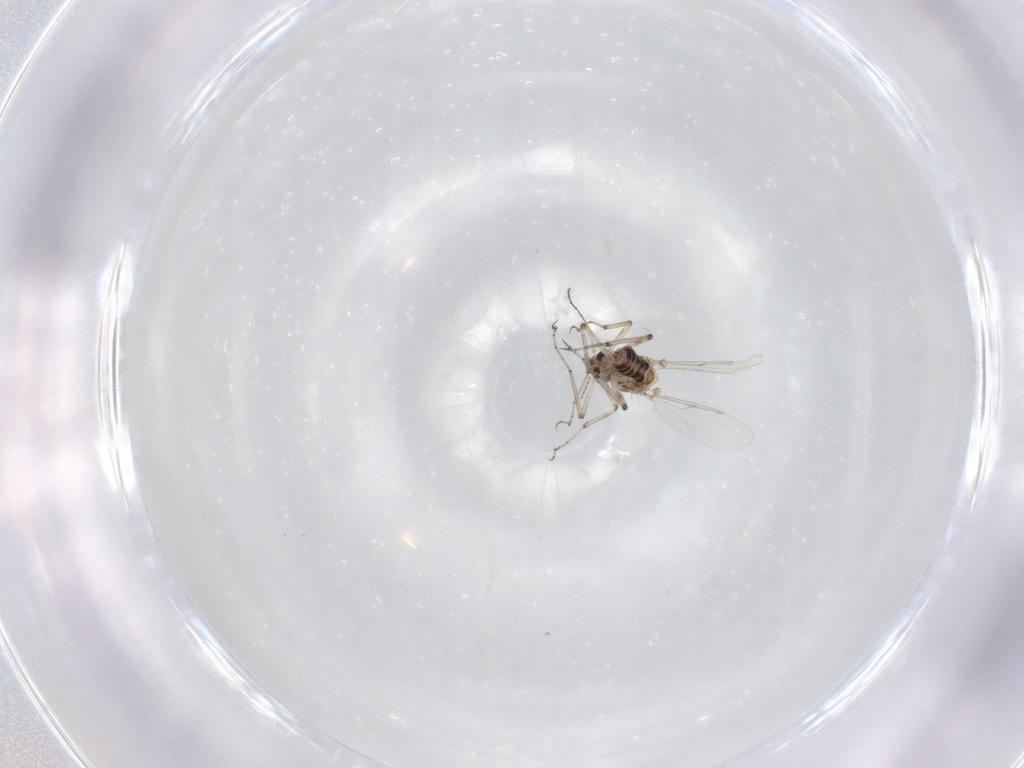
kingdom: Animalia
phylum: Arthropoda
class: Insecta
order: Diptera
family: Ceratopogonidae
